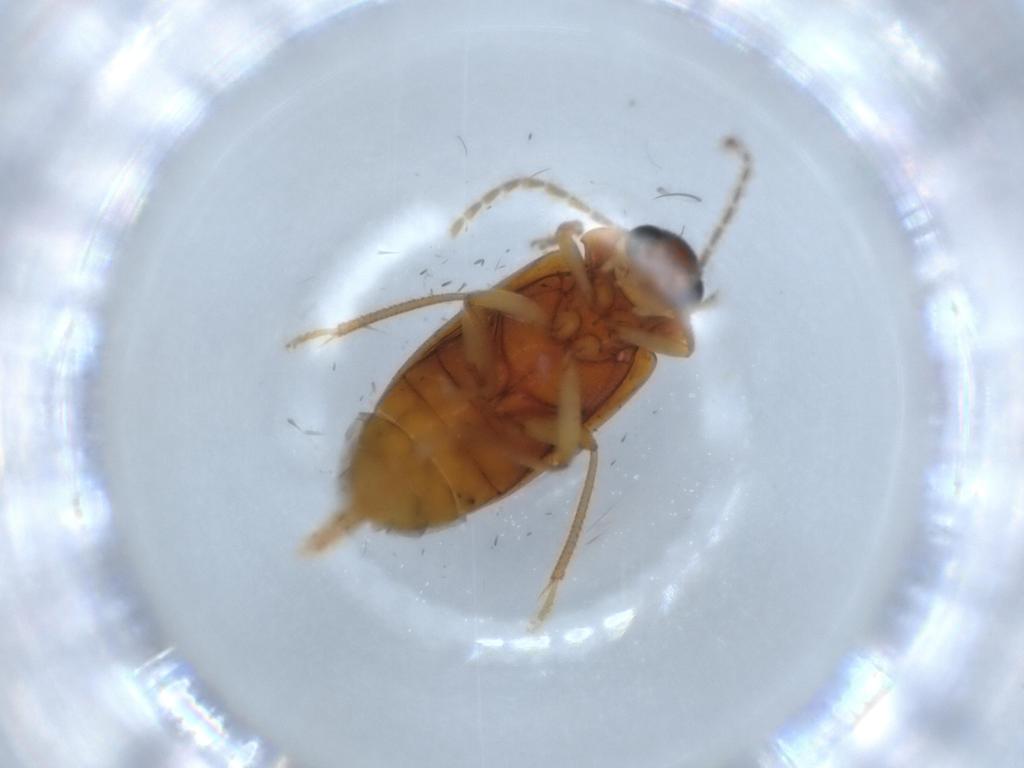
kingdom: Animalia
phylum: Arthropoda
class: Insecta
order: Coleoptera
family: Ptilodactylidae
